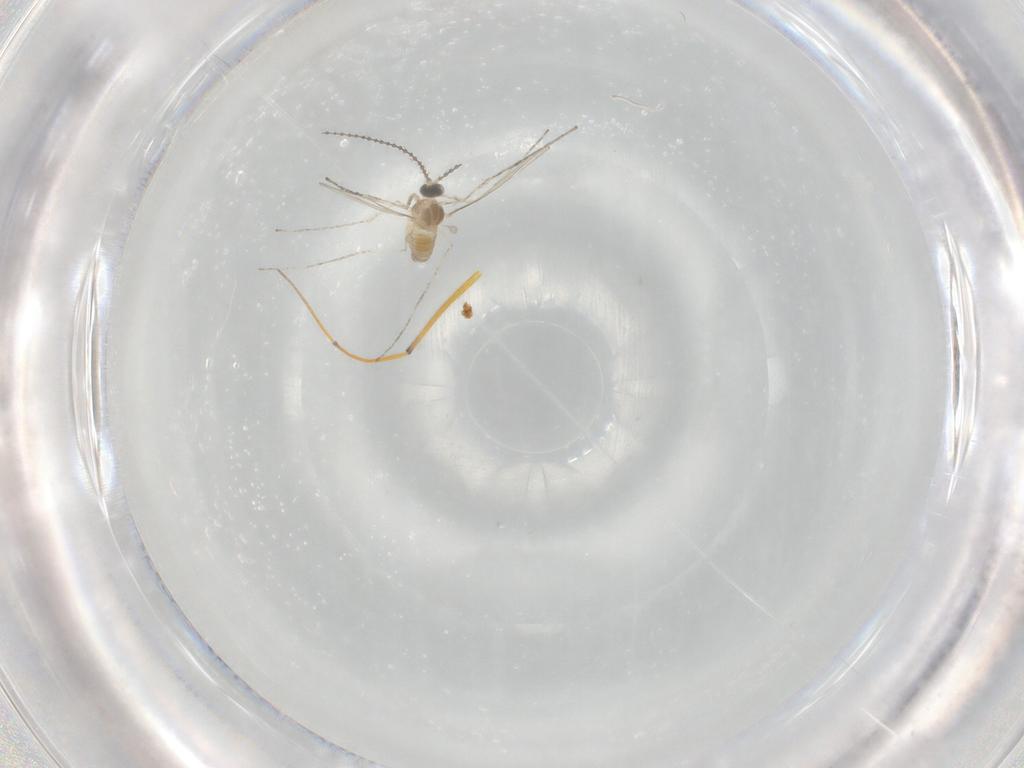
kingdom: Animalia
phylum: Arthropoda
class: Insecta
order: Diptera
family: Cecidomyiidae
